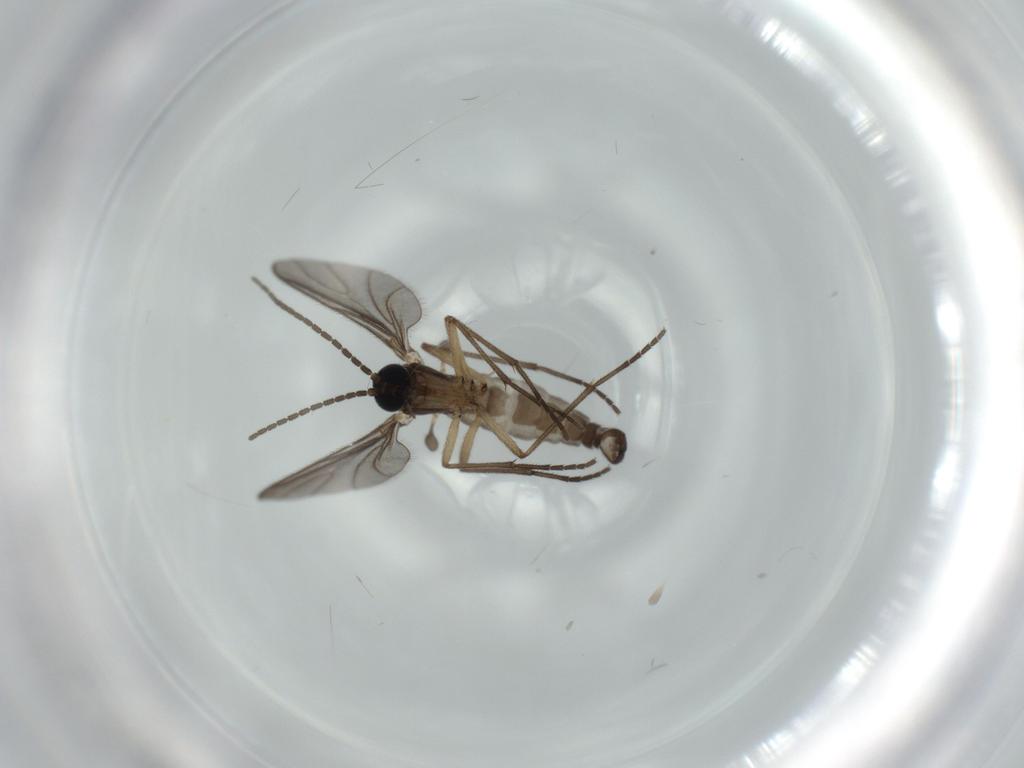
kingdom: Animalia
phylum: Arthropoda
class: Insecta
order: Diptera
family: Sciaridae
